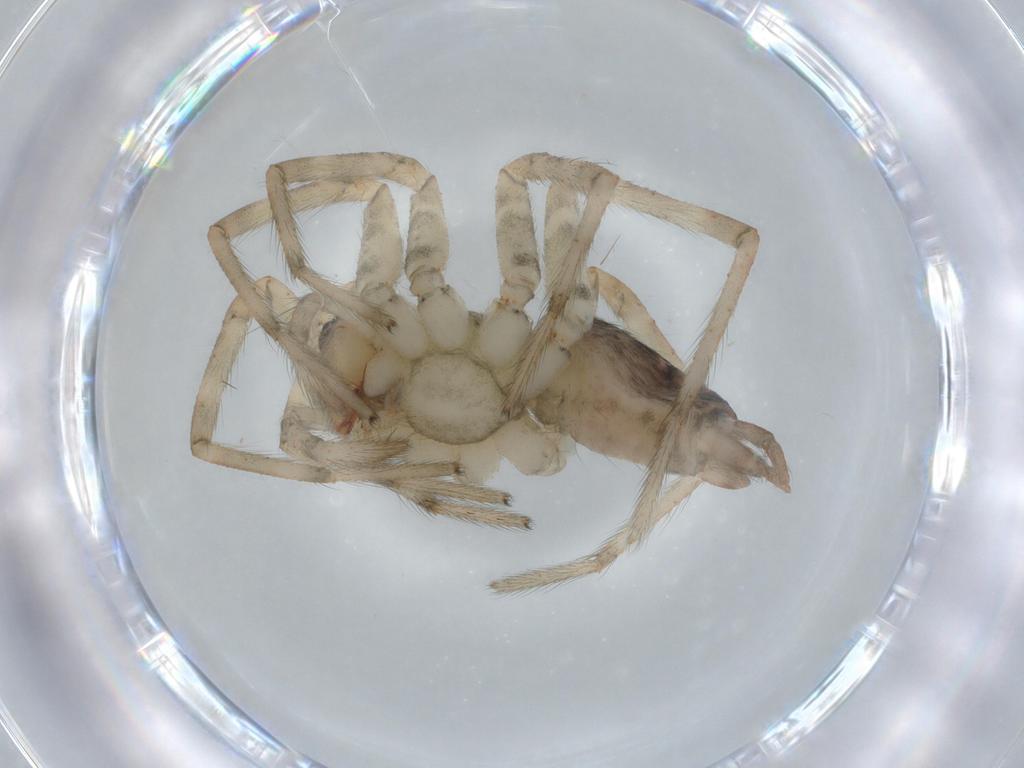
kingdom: Animalia
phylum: Arthropoda
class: Arachnida
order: Araneae
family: Agelenidae
